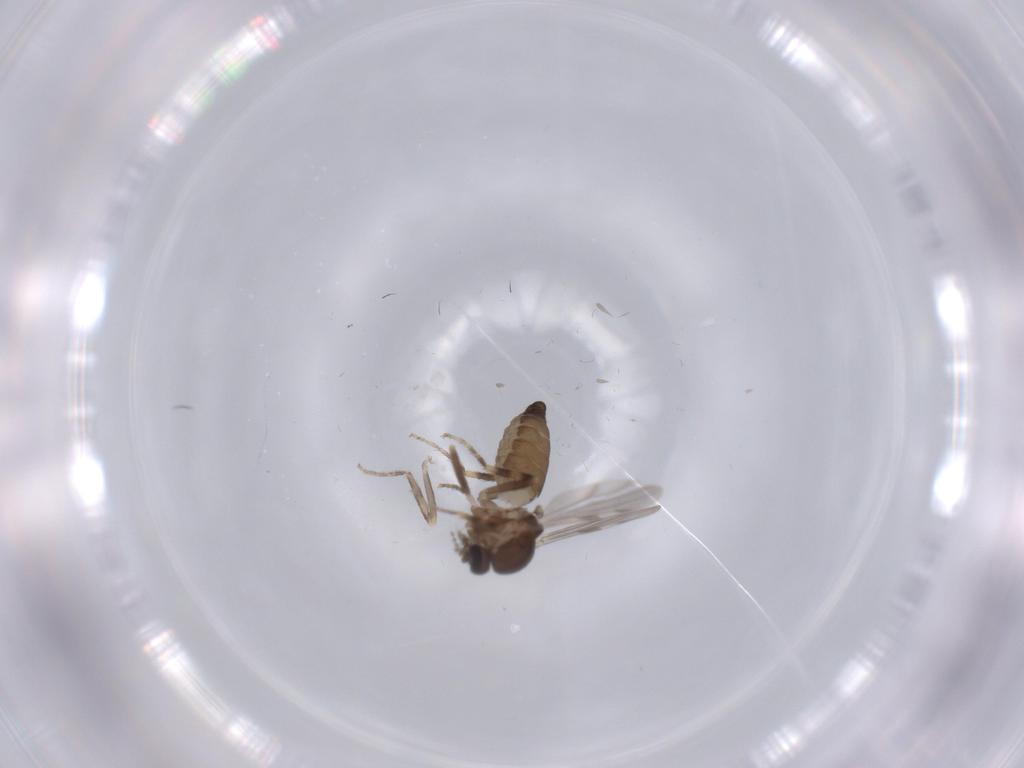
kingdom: Animalia
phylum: Arthropoda
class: Insecta
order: Diptera
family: Ceratopogonidae
